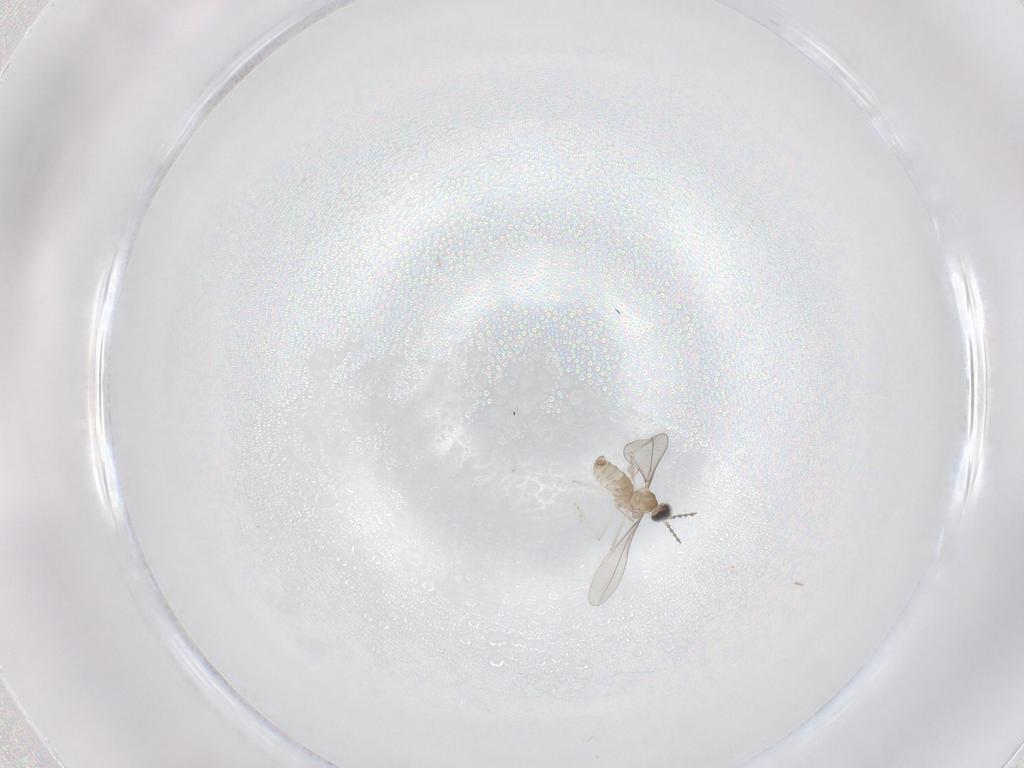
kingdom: Animalia
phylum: Arthropoda
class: Insecta
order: Diptera
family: Cecidomyiidae
